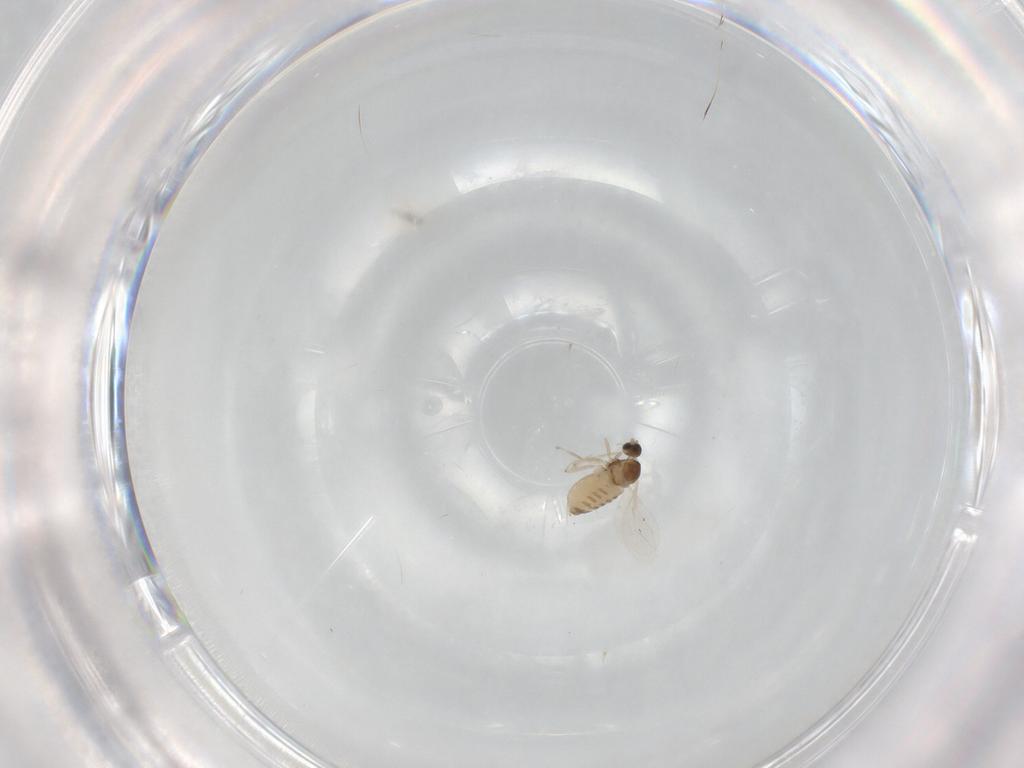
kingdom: Animalia
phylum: Arthropoda
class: Insecta
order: Diptera
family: Cecidomyiidae
